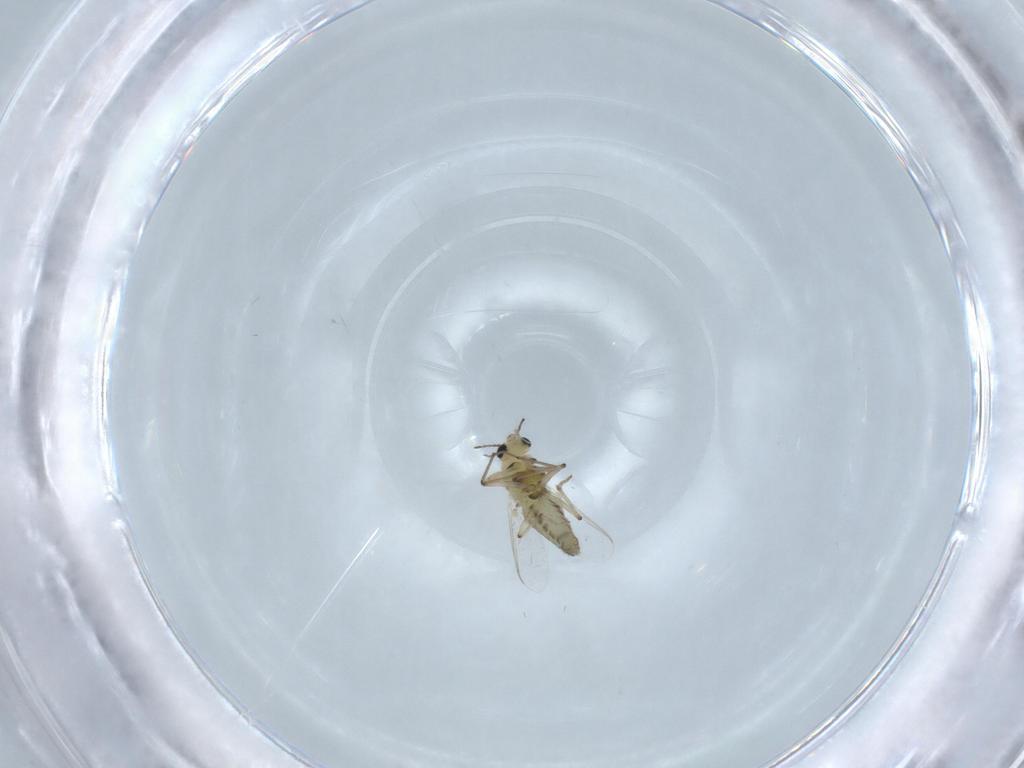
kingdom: Animalia
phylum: Arthropoda
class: Insecta
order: Diptera
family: Chironomidae
